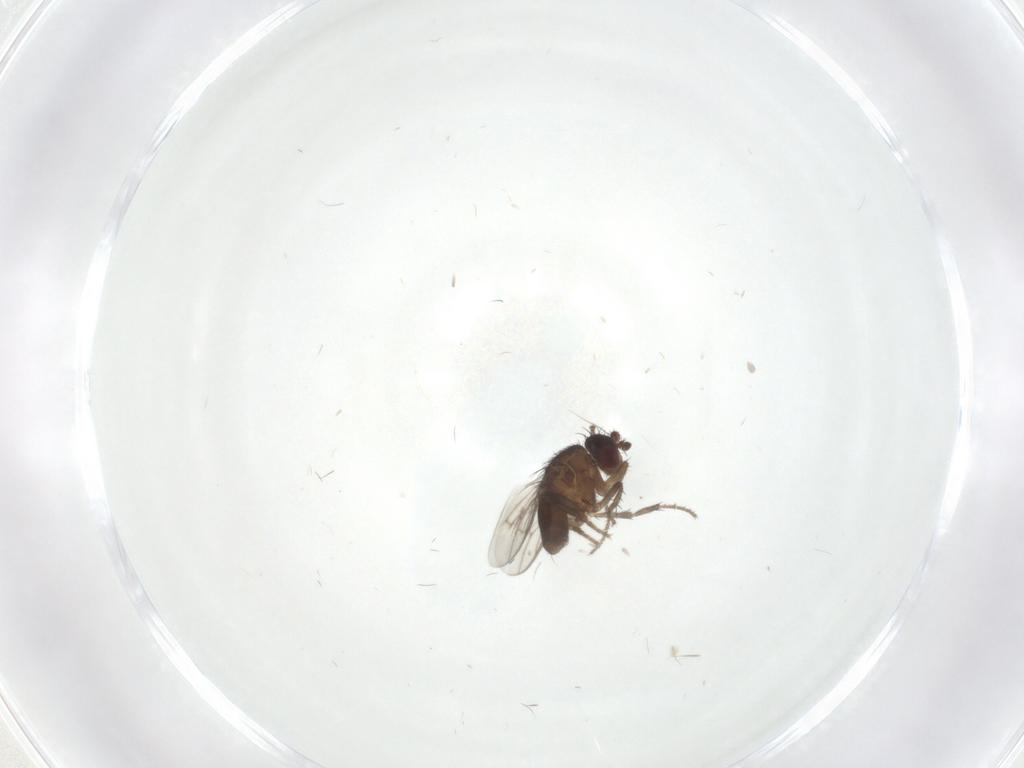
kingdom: Animalia
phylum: Arthropoda
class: Insecta
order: Diptera
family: Sphaeroceridae
